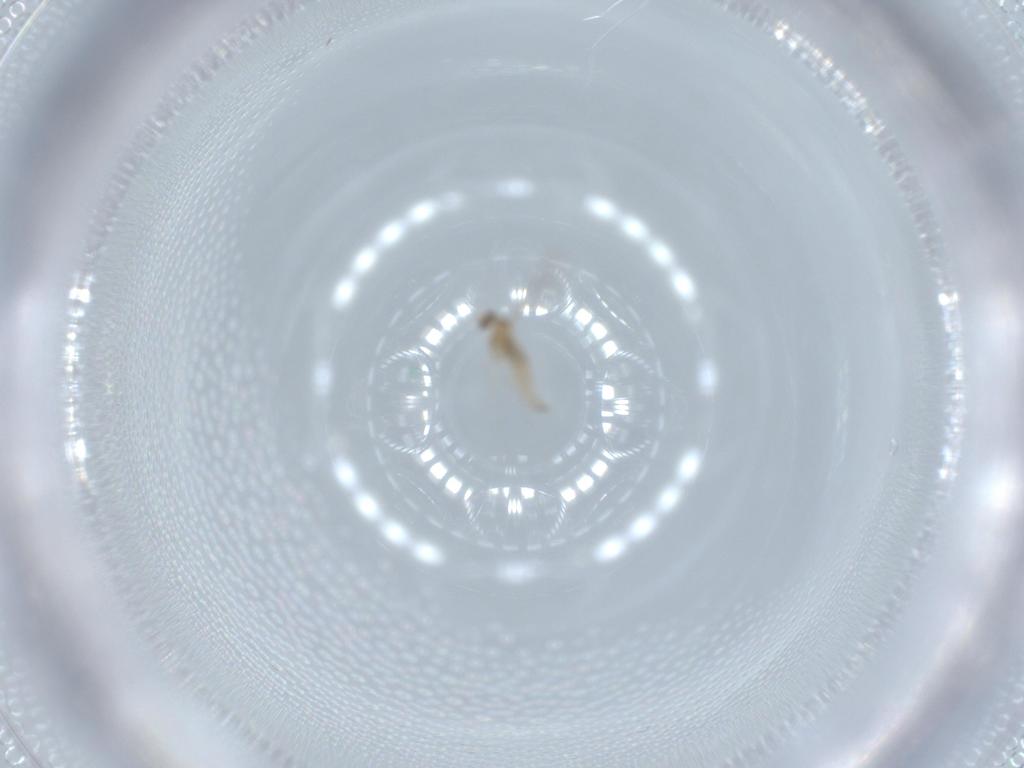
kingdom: Animalia
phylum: Arthropoda
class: Insecta
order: Diptera
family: Cecidomyiidae
